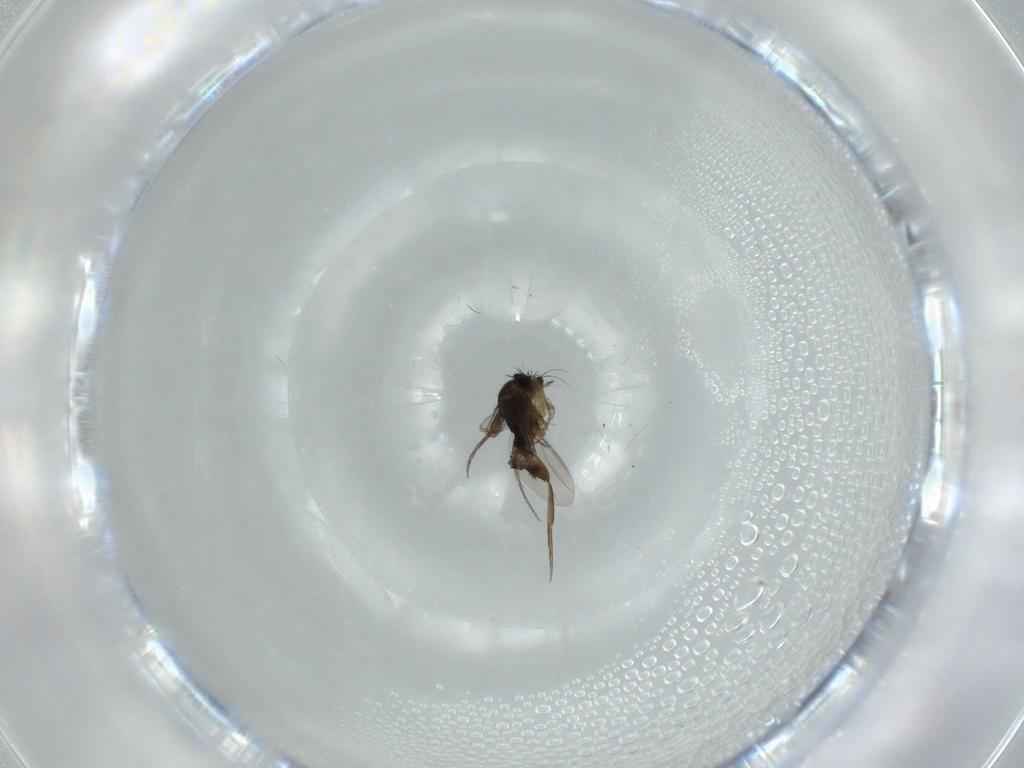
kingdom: Animalia
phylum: Arthropoda
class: Insecta
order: Diptera
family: Phoridae
